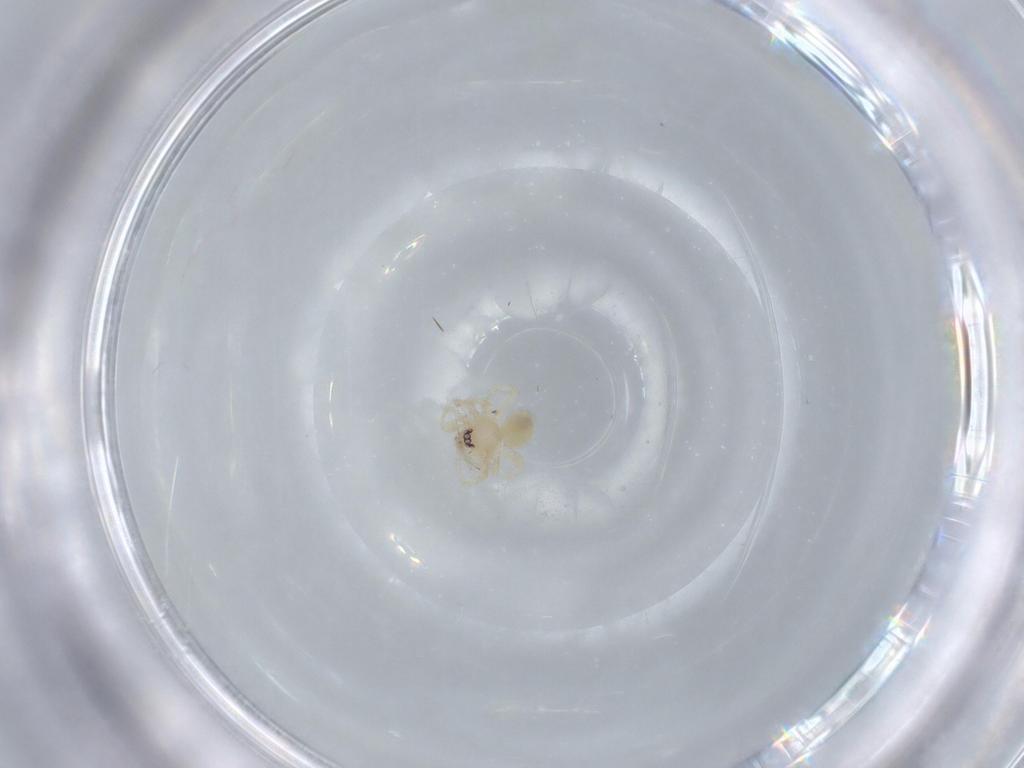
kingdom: Animalia
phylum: Arthropoda
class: Arachnida
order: Araneae
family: Oonopidae
